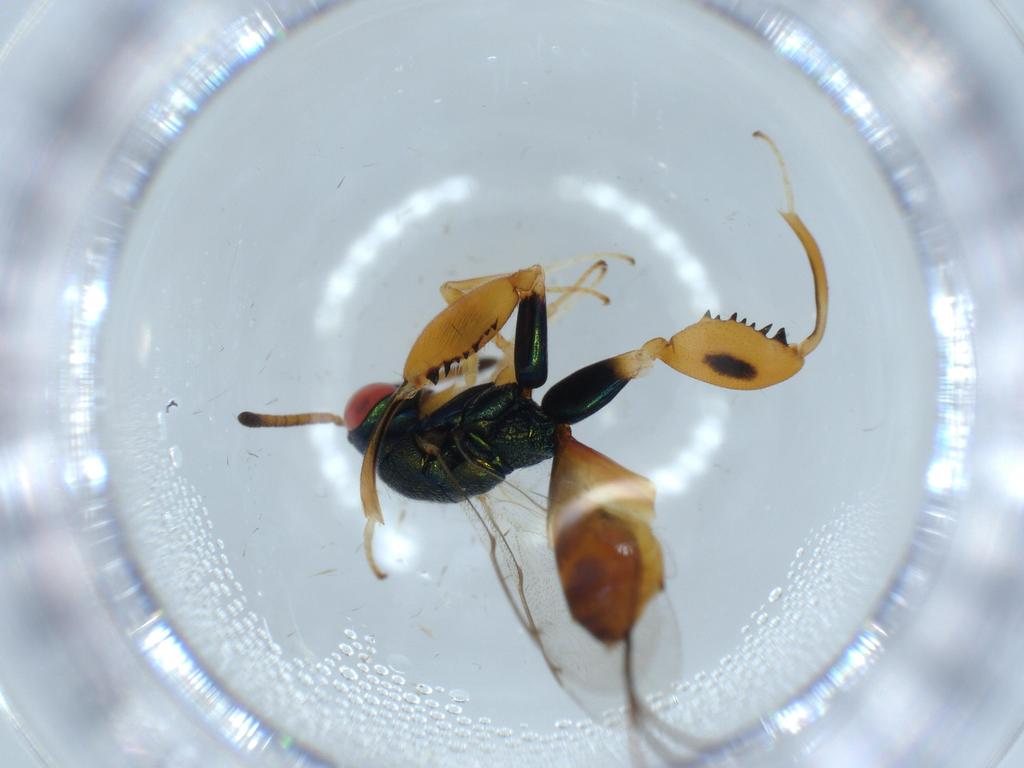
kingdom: Animalia
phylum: Arthropoda
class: Insecta
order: Hymenoptera
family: Torymidae
